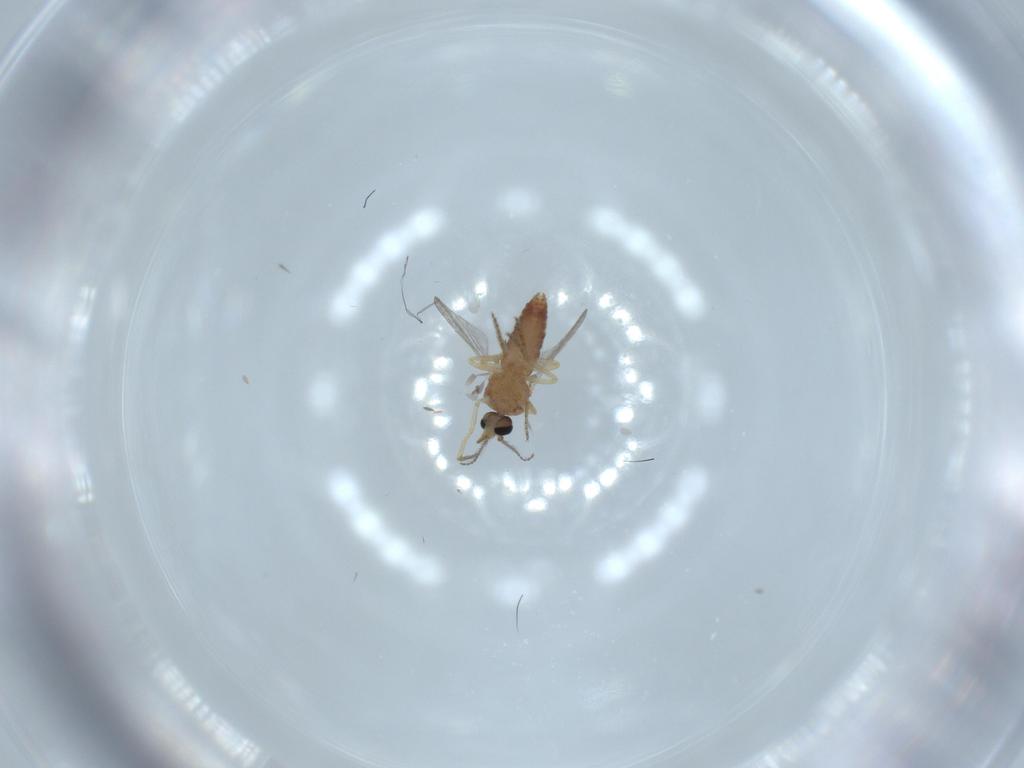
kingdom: Animalia
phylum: Arthropoda
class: Insecta
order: Diptera
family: Ceratopogonidae
